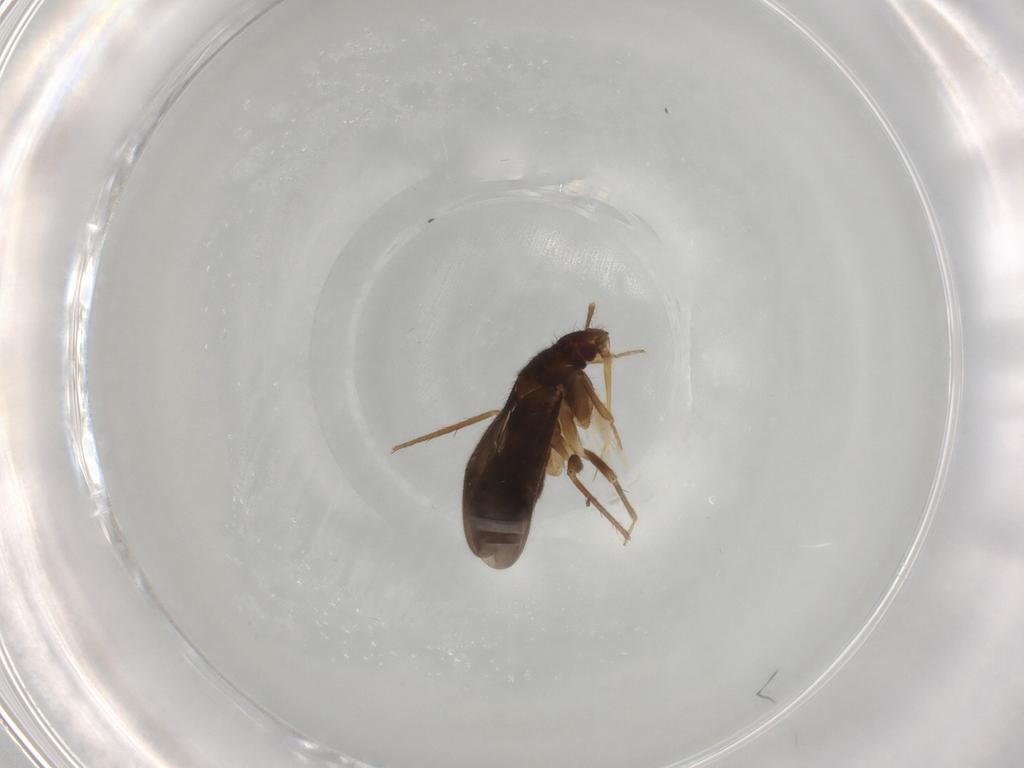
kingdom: Animalia
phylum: Arthropoda
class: Insecta
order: Hemiptera
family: Ceratocombidae
